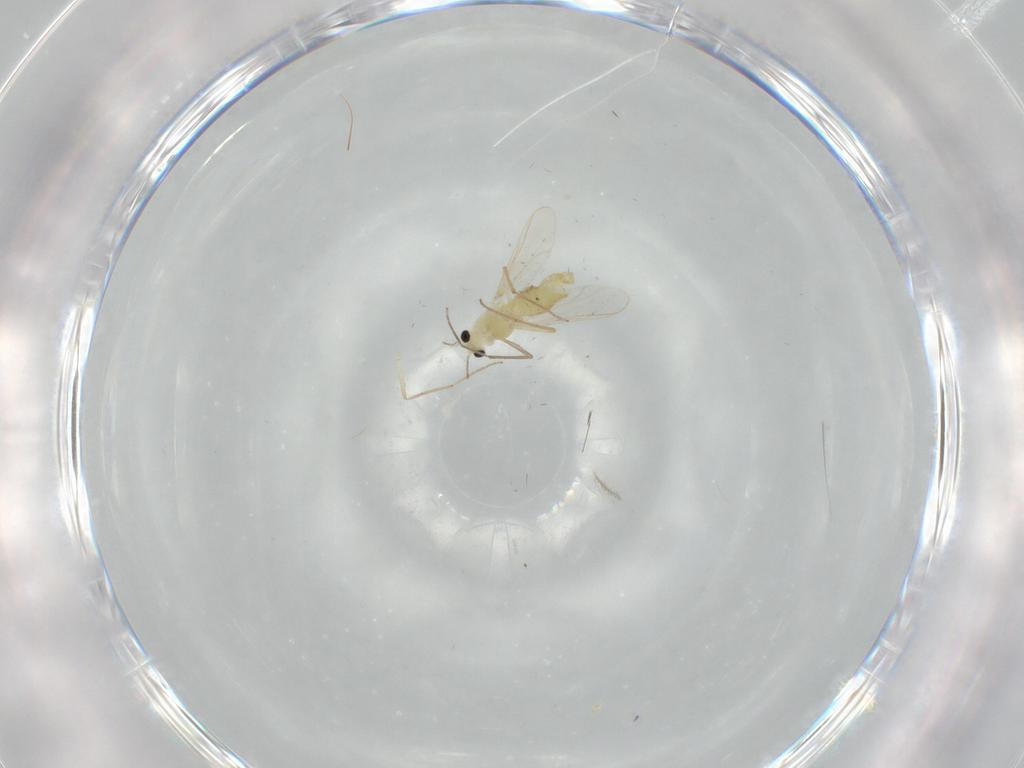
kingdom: Animalia
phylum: Arthropoda
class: Insecta
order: Diptera
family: Chironomidae
